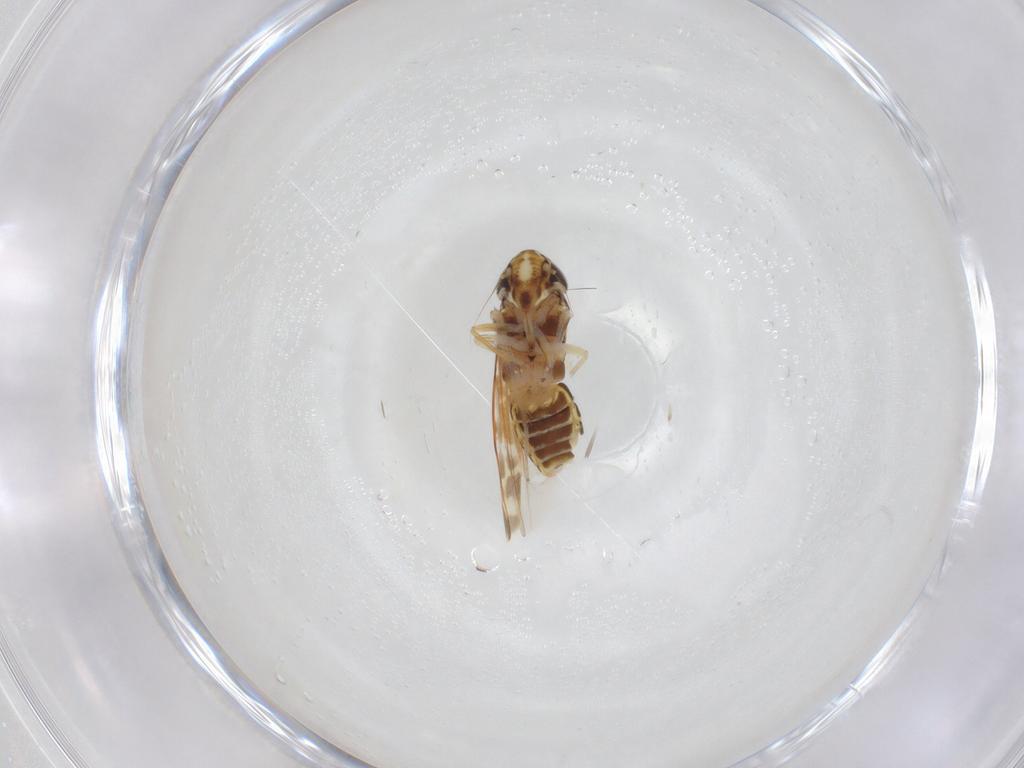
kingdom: Animalia
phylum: Arthropoda
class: Insecta
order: Hemiptera
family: Cicadellidae
